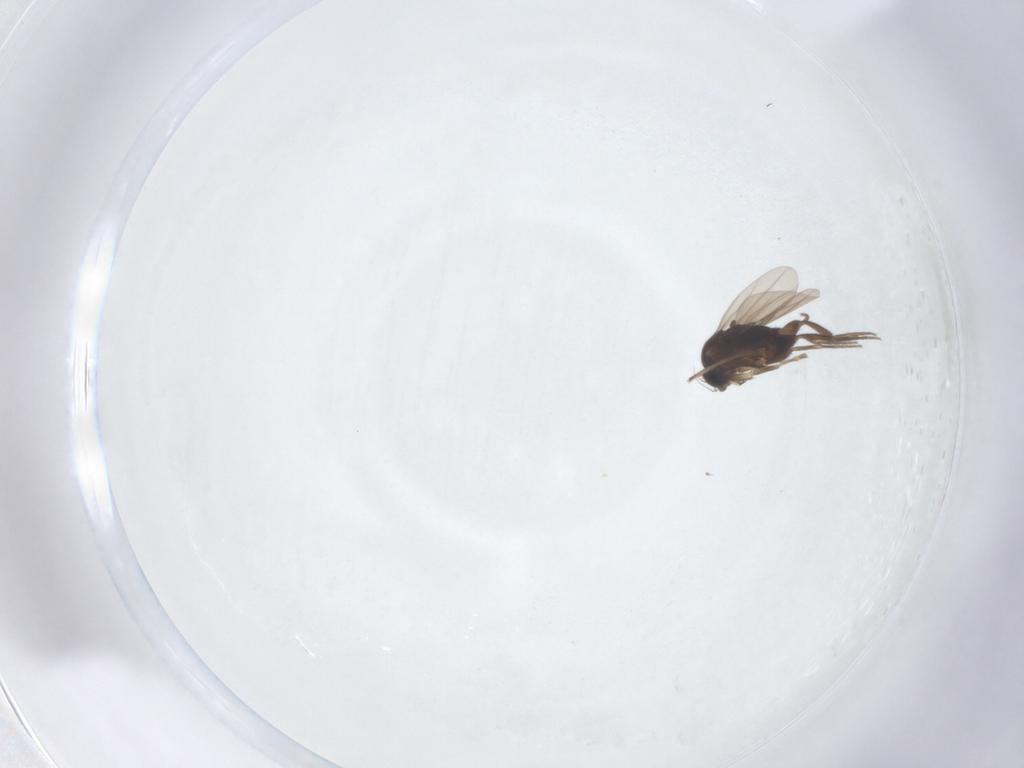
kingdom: Animalia
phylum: Arthropoda
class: Insecta
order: Diptera
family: Phoridae
